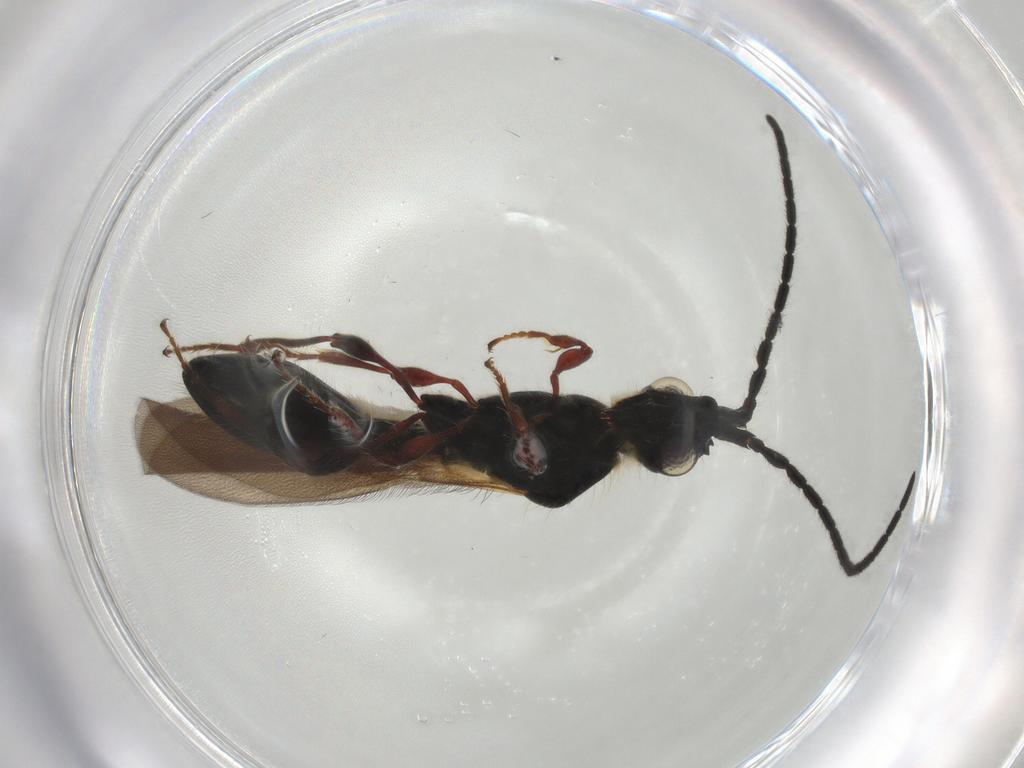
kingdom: Animalia
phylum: Arthropoda
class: Insecta
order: Hymenoptera
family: Diapriidae
